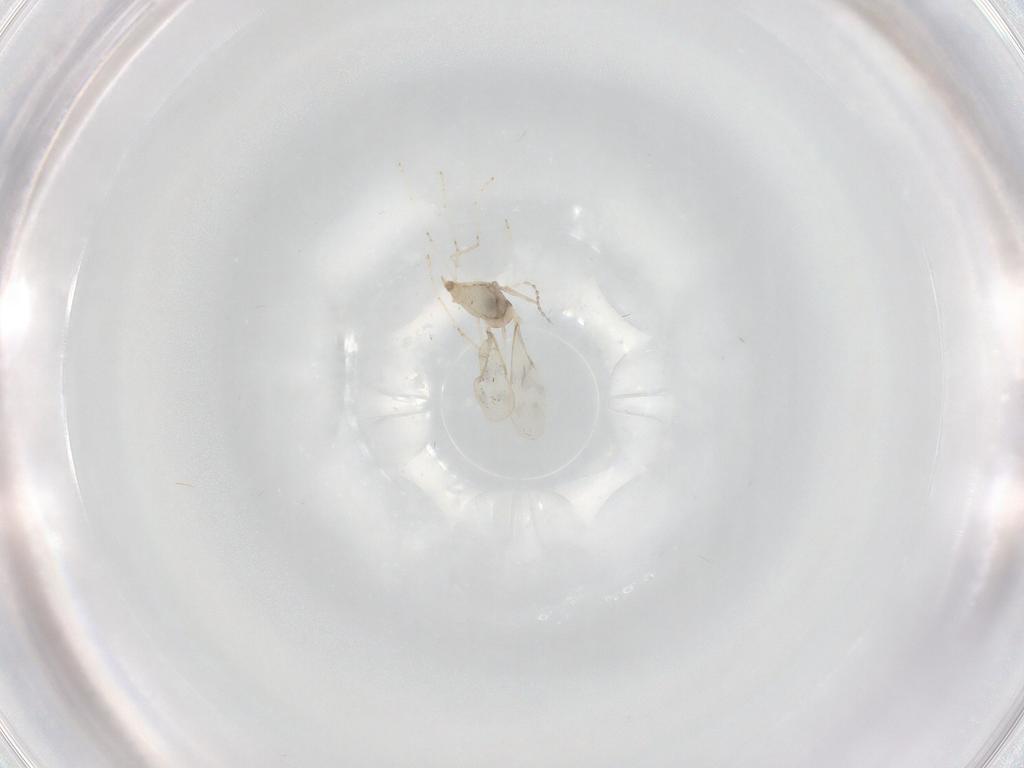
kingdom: Animalia
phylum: Arthropoda
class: Insecta
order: Diptera
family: Cecidomyiidae
